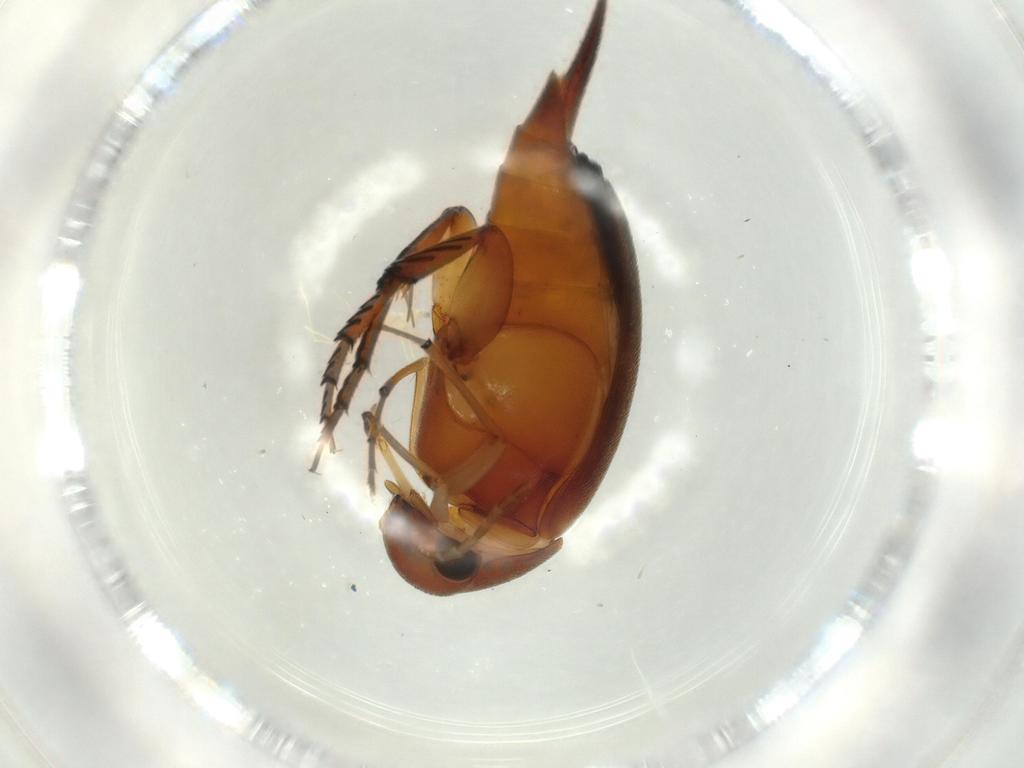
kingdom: Animalia
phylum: Arthropoda
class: Insecta
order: Coleoptera
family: Mordellidae
